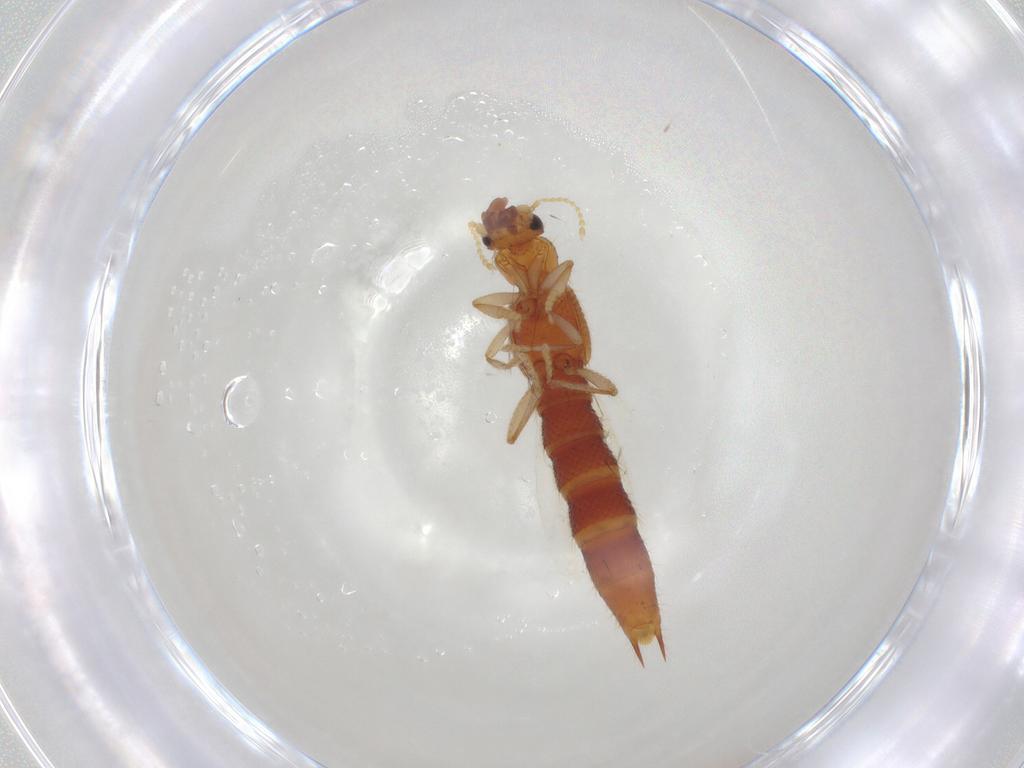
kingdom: Animalia
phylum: Arthropoda
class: Insecta
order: Coleoptera
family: Staphylinidae
